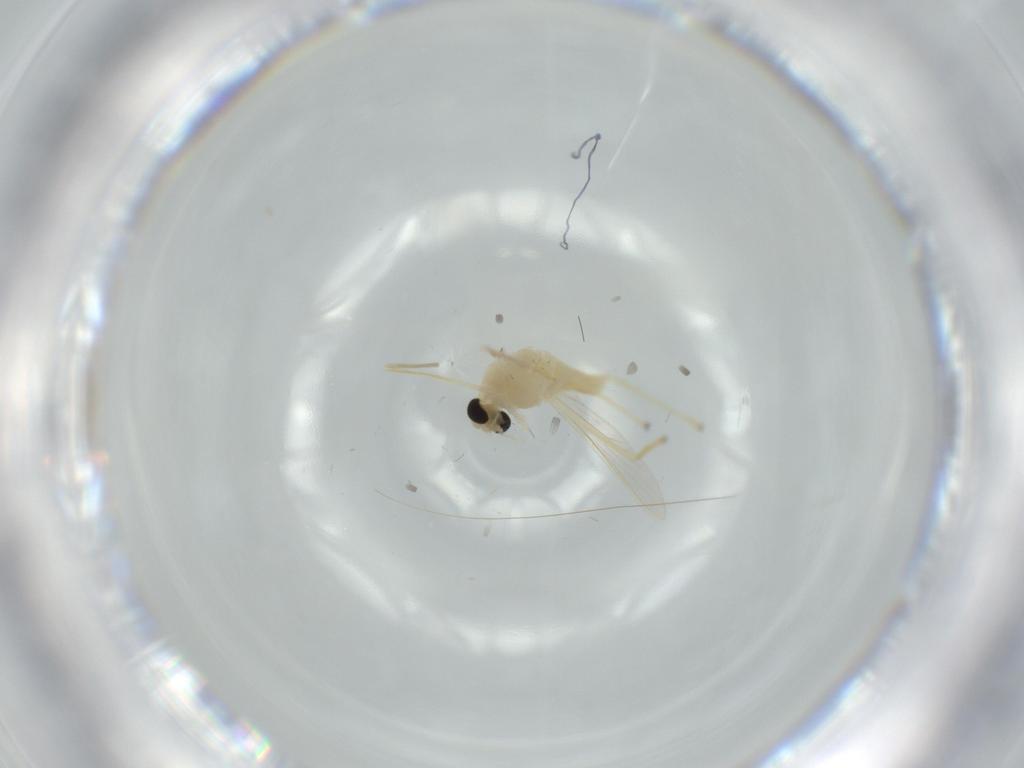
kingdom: Animalia
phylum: Arthropoda
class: Insecta
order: Diptera
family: Chironomidae
